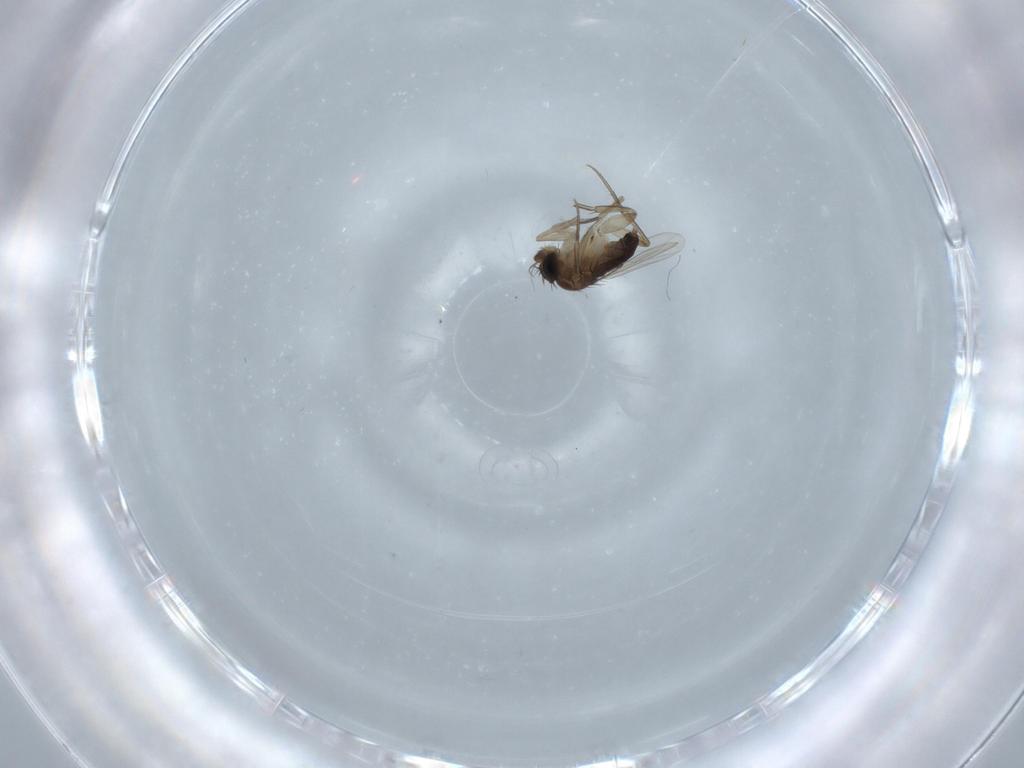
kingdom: Animalia
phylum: Arthropoda
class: Insecta
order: Diptera
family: Phoridae
